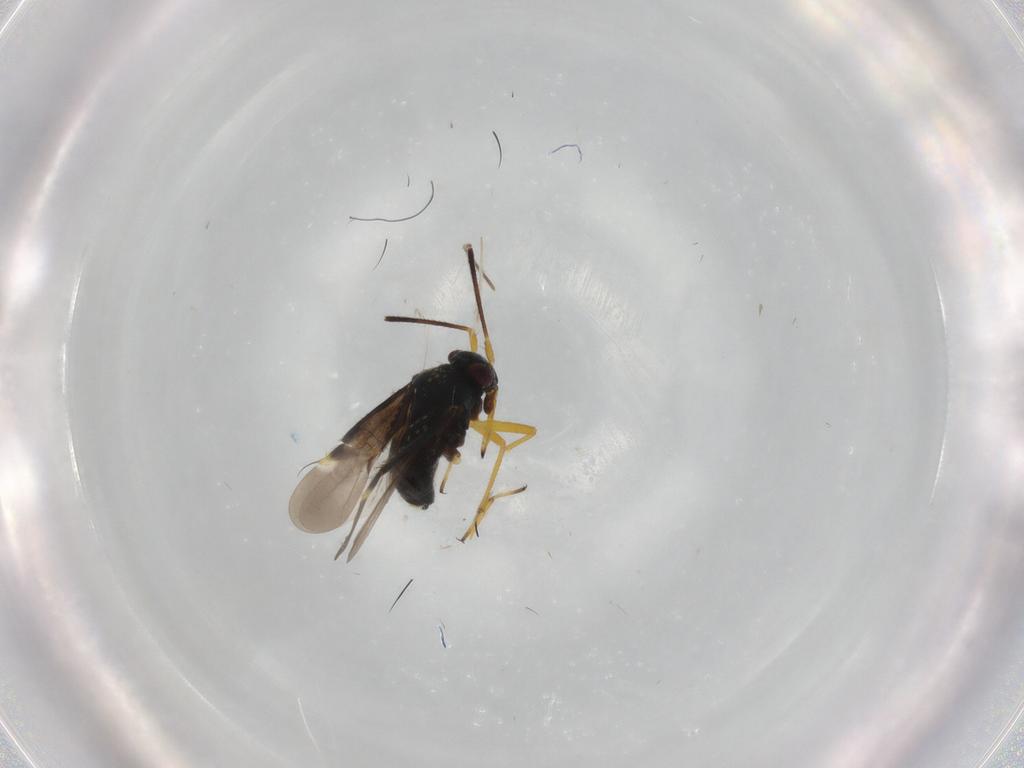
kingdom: Animalia
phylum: Arthropoda
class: Insecta
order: Hemiptera
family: Miridae
